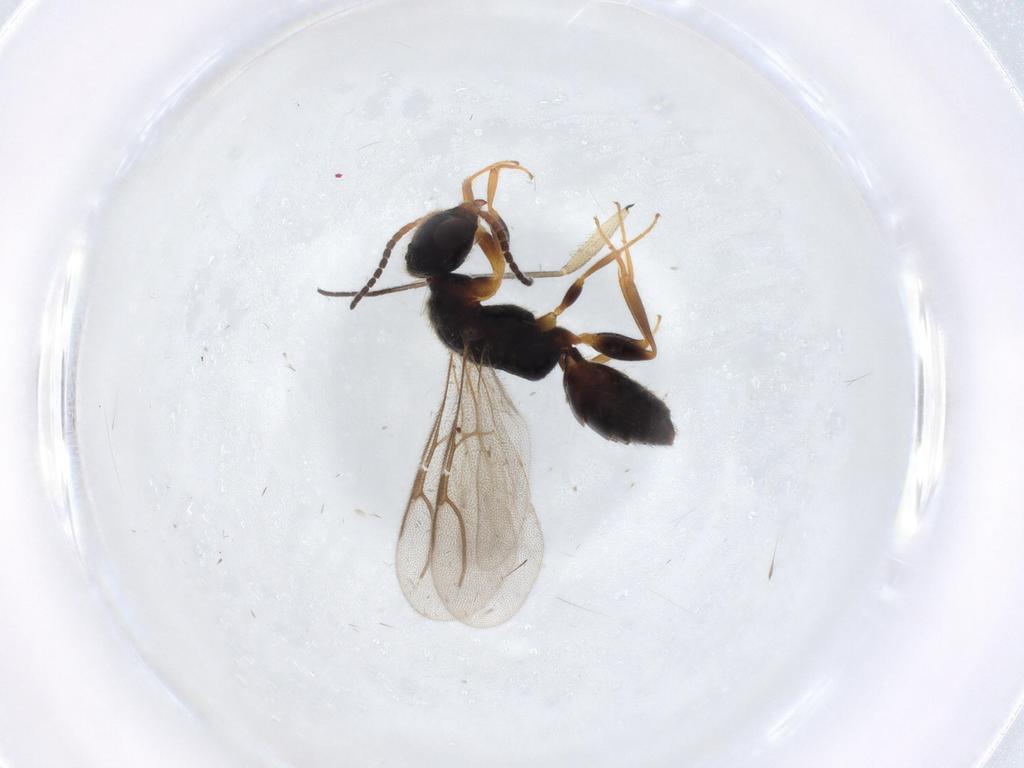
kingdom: Animalia
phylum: Arthropoda
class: Insecta
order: Hymenoptera
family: Bethylidae
